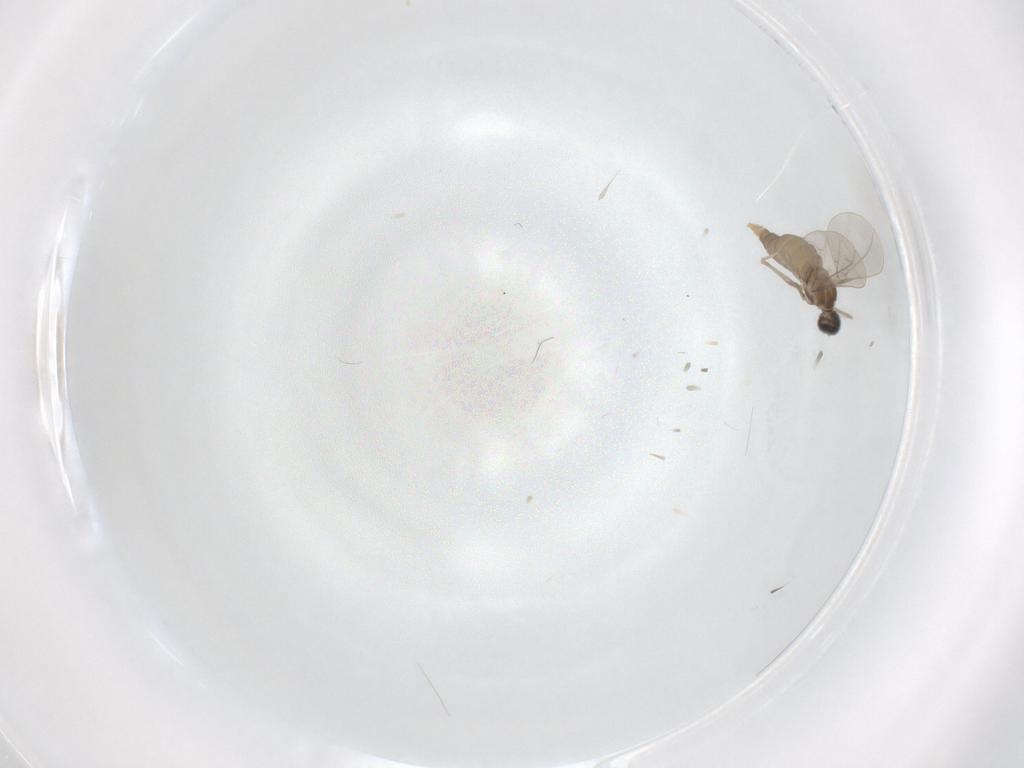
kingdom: Animalia
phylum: Arthropoda
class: Insecta
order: Diptera
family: Cecidomyiidae
